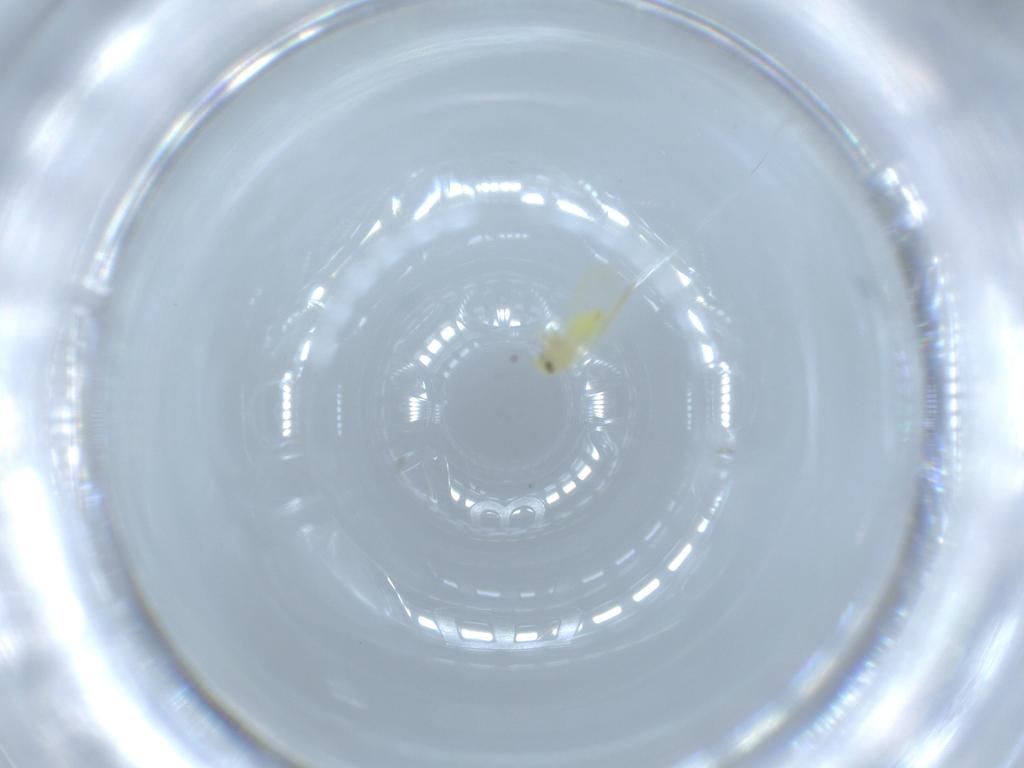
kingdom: Animalia
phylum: Arthropoda
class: Insecta
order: Hemiptera
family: Aleyrodidae
